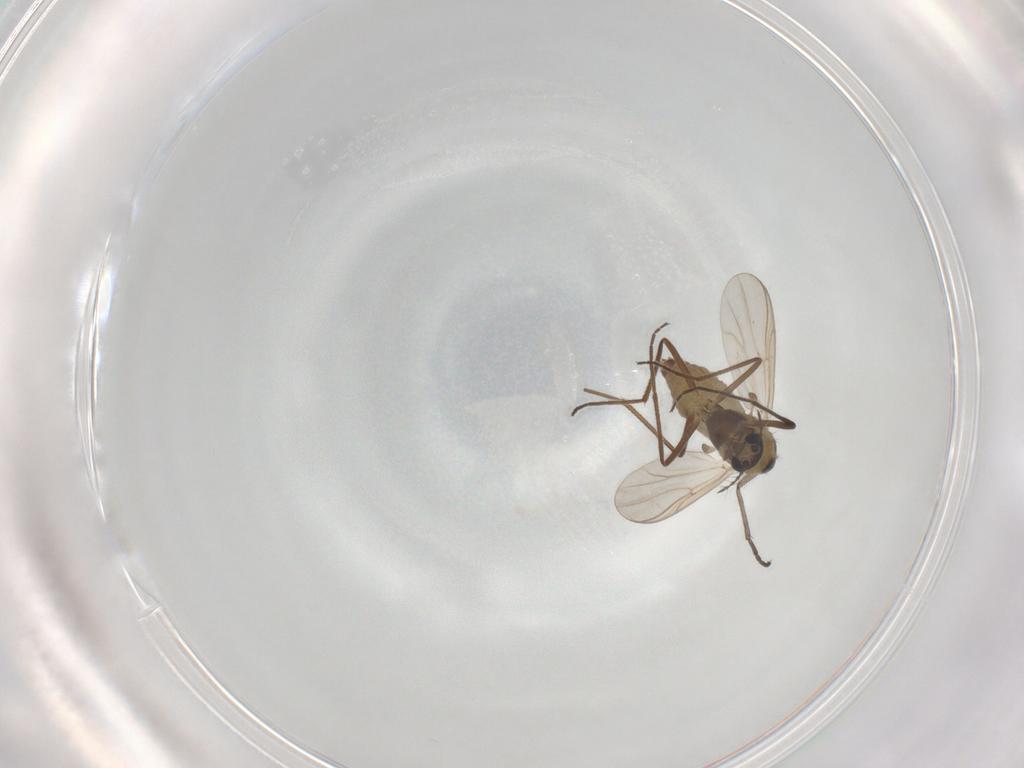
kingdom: Animalia
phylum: Arthropoda
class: Insecta
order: Diptera
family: Chironomidae
